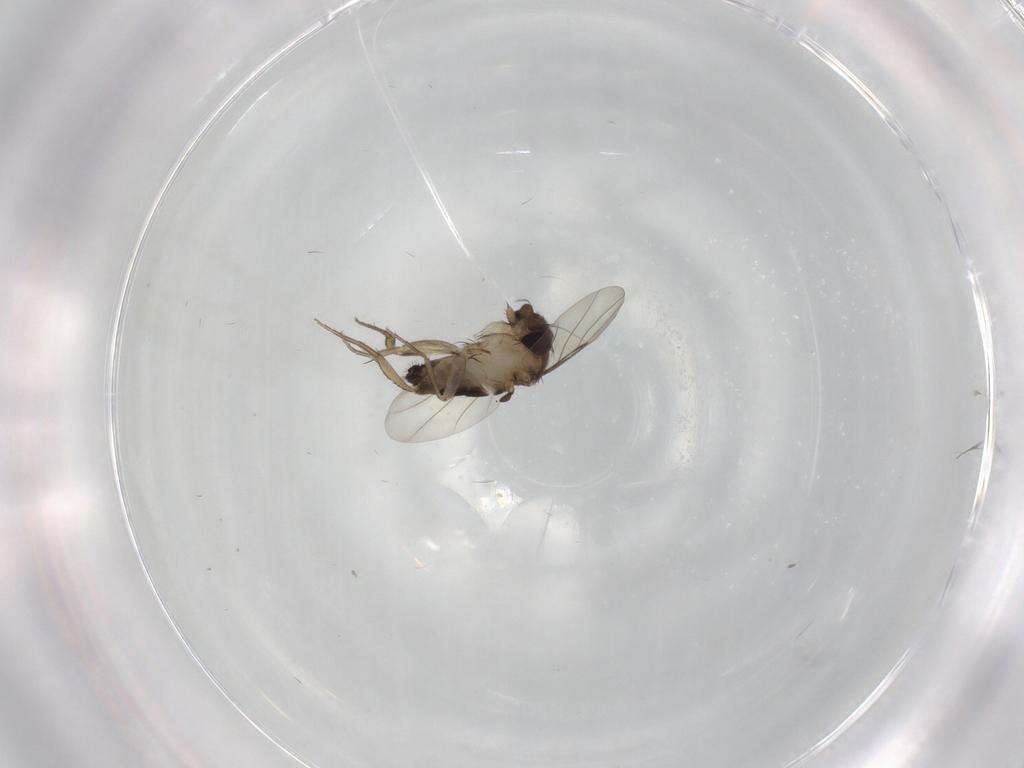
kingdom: Animalia
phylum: Arthropoda
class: Insecta
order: Diptera
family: Phoridae
